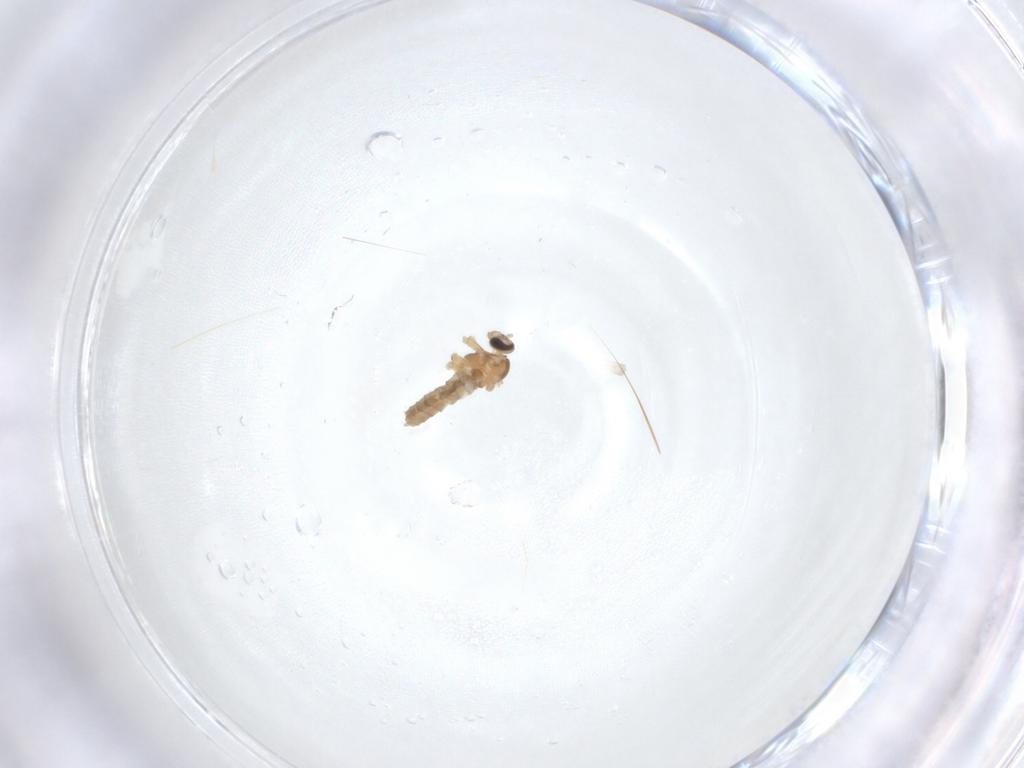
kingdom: Animalia
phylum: Arthropoda
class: Insecta
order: Diptera
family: Cecidomyiidae
